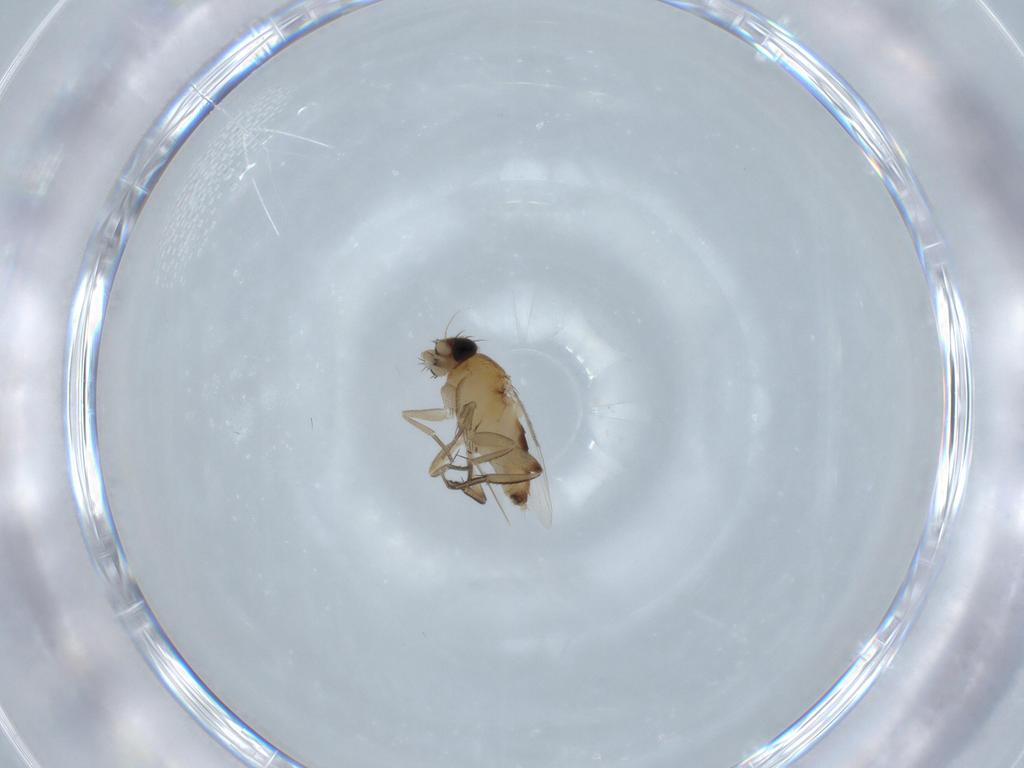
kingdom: Animalia
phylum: Arthropoda
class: Insecta
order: Diptera
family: Phoridae
